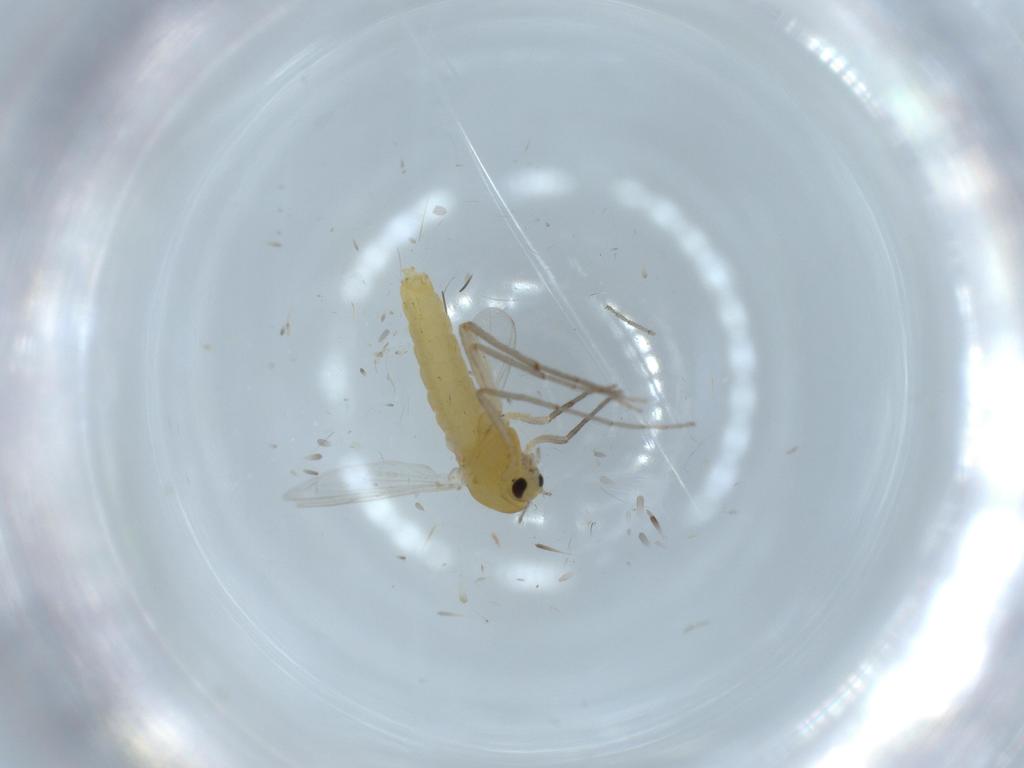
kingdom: Animalia
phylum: Arthropoda
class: Insecta
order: Diptera
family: Chironomidae
